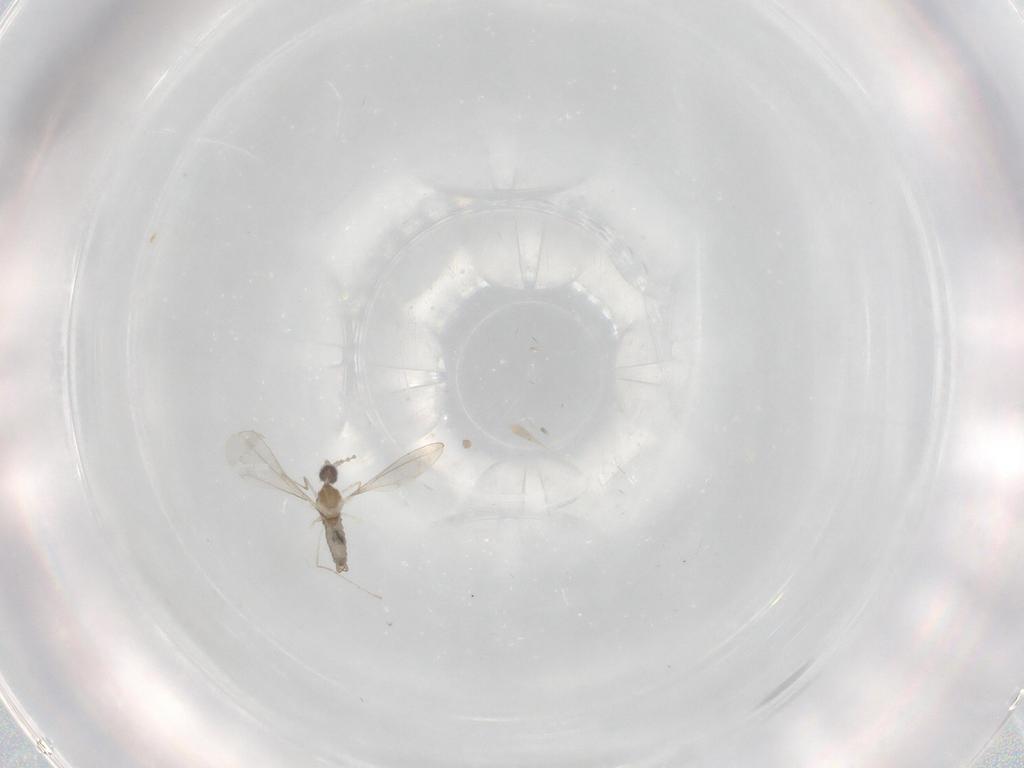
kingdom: Animalia
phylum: Arthropoda
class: Insecta
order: Diptera
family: Cecidomyiidae
